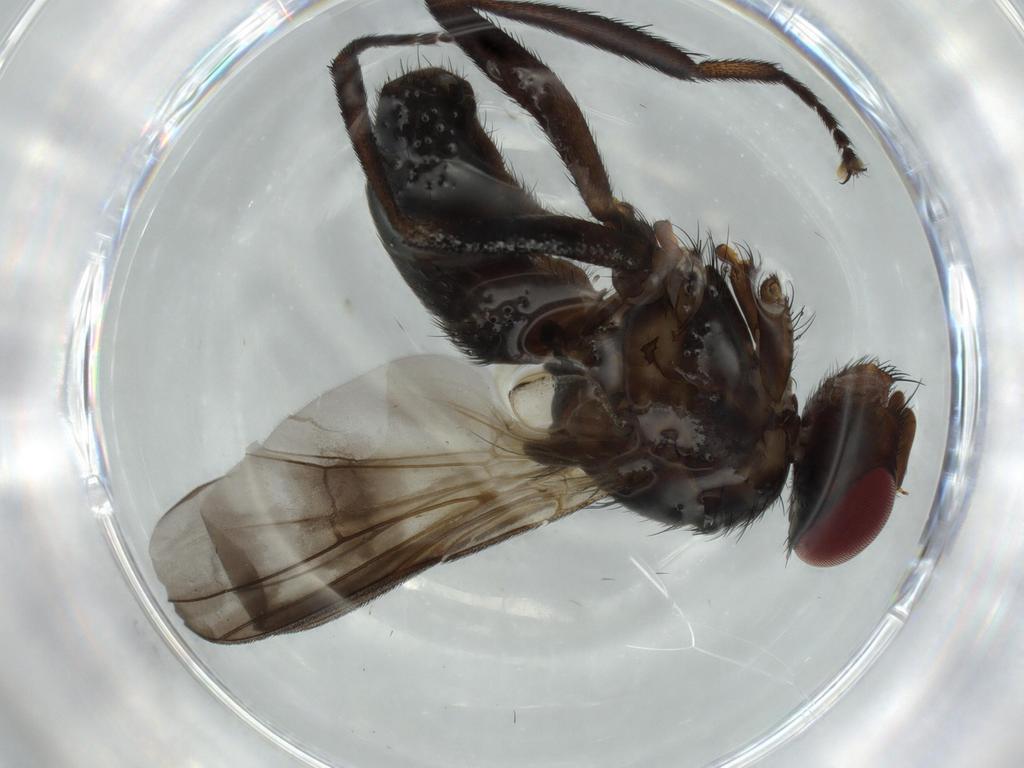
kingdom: Animalia
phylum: Arthropoda
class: Insecta
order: Diptera
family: Calliphoridae
